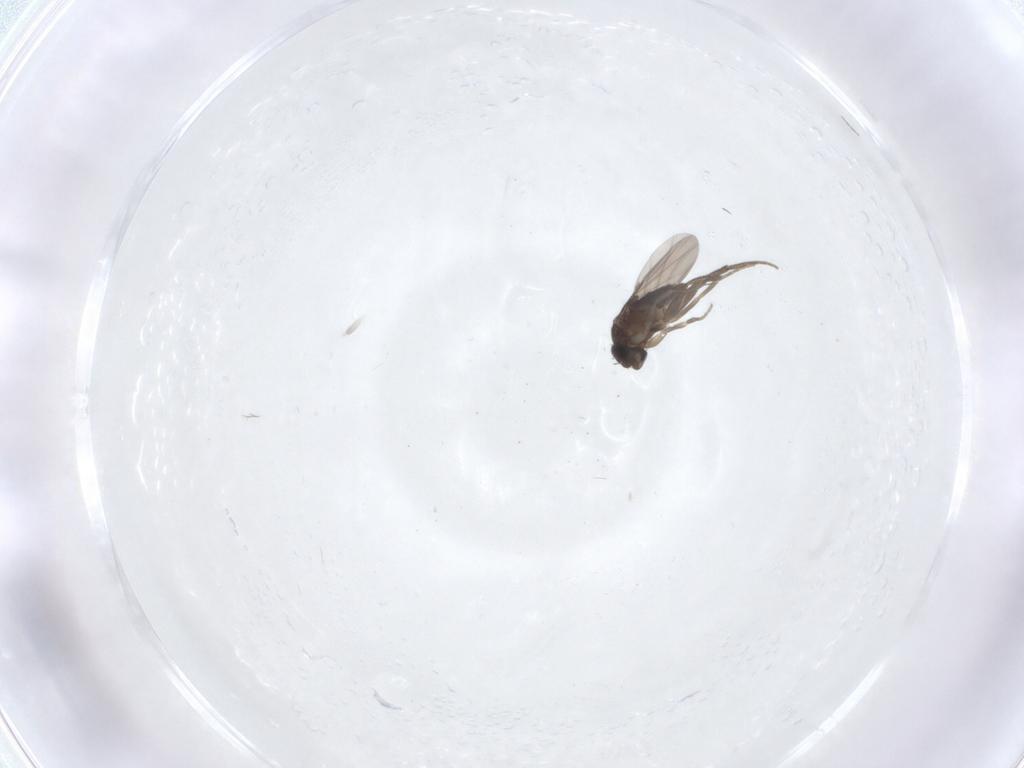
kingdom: Animalia
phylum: Arthropoda
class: Insecta
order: Diptera
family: Phoridae
